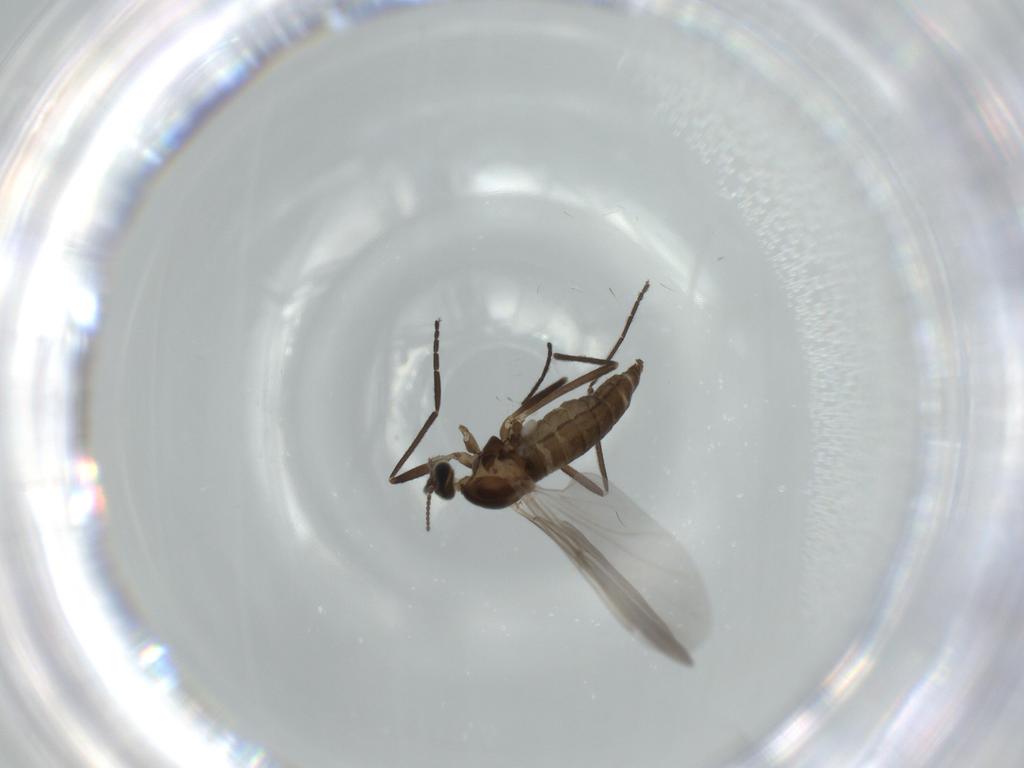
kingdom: Animalia
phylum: Arthropoda
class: Insecta
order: Diptera
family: Cecidomyiidae
